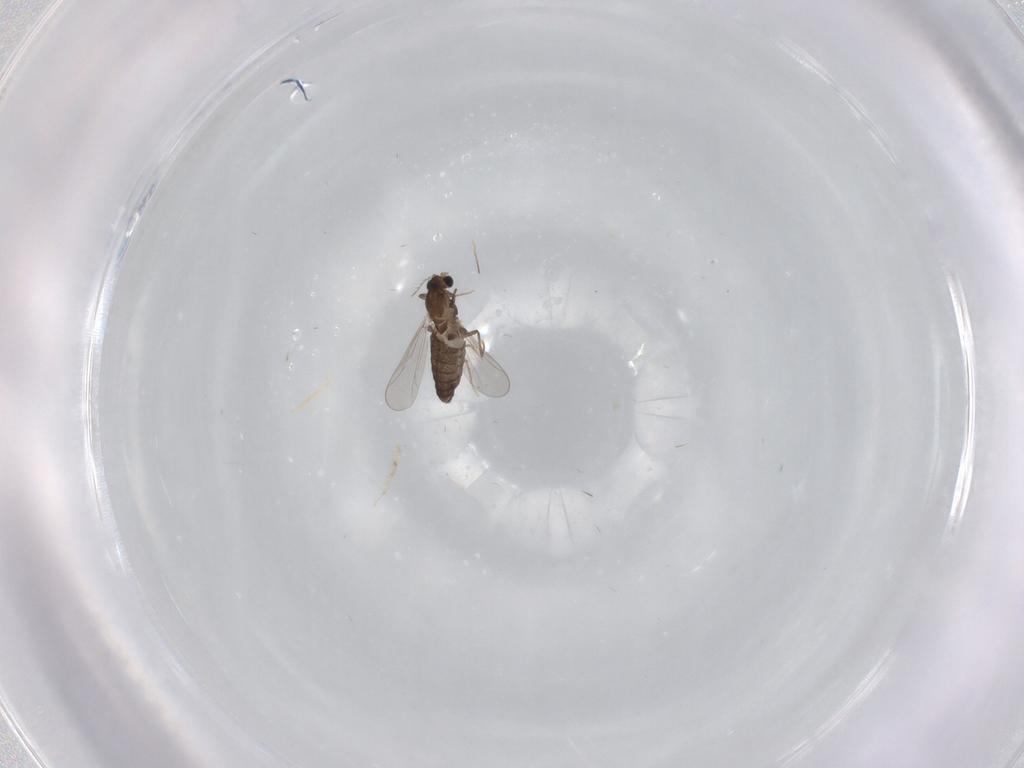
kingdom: Animalia
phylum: Arthropoda
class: Insecta
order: Diptera
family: Chironomidae
